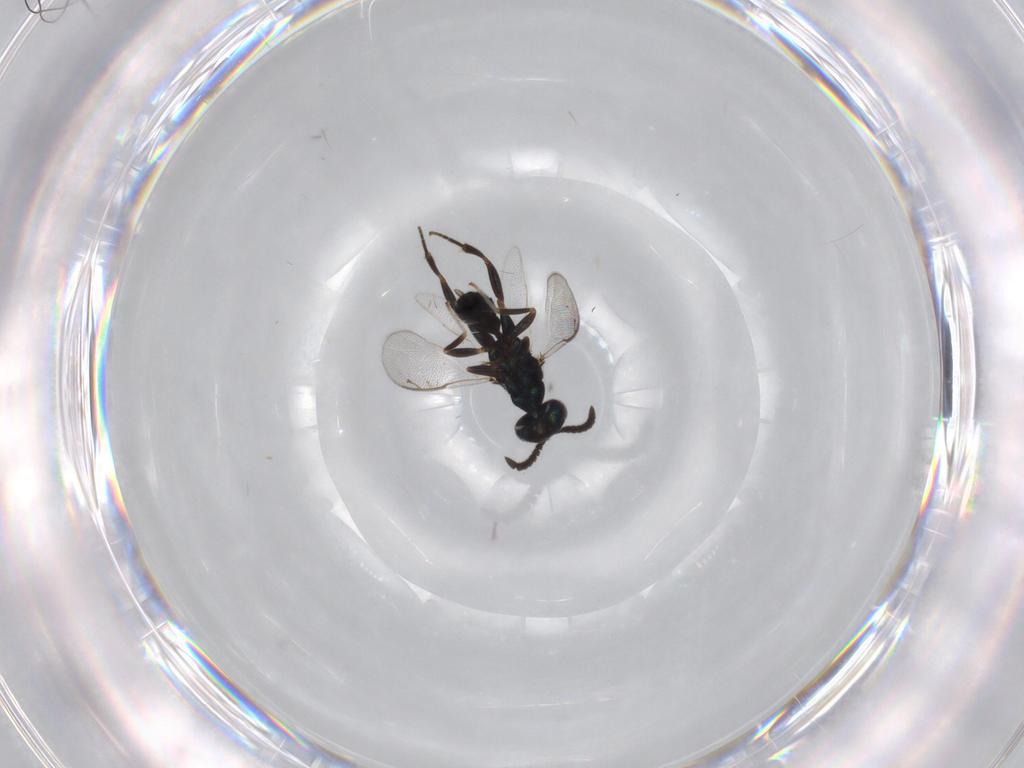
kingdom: Animalia
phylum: Arthropoda
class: Insecta
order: Hymenoptera
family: Cleonyminae
